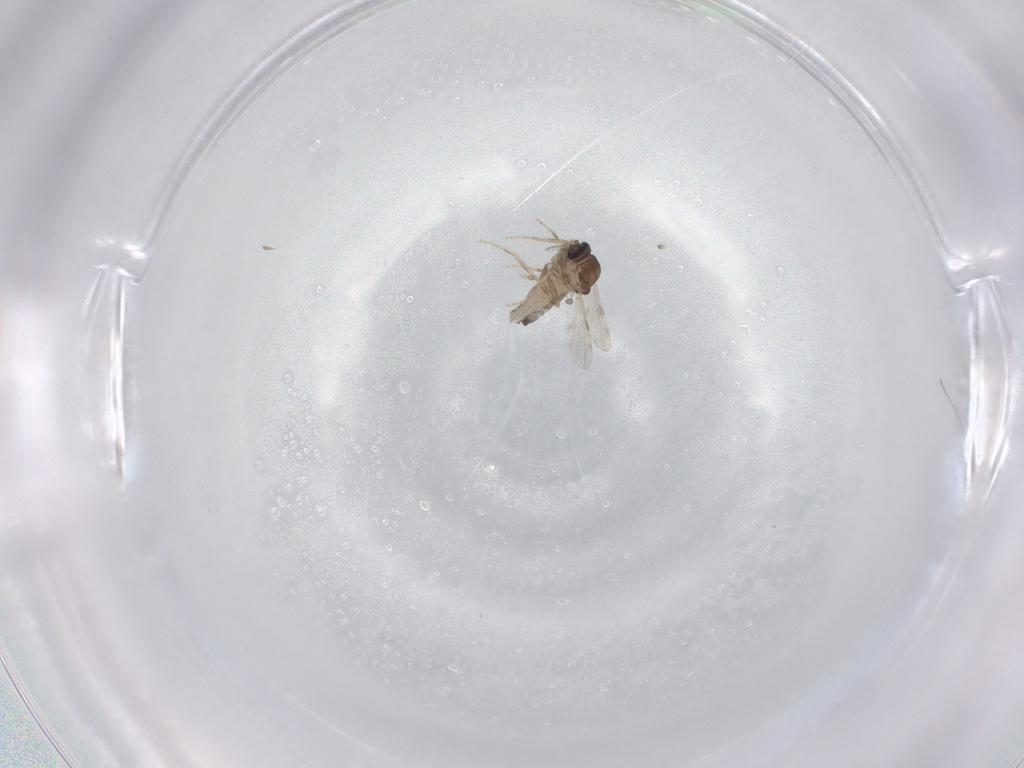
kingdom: Animalia
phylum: Arthropoda
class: Insecta
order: Diptera
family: Ceratopogonidae
